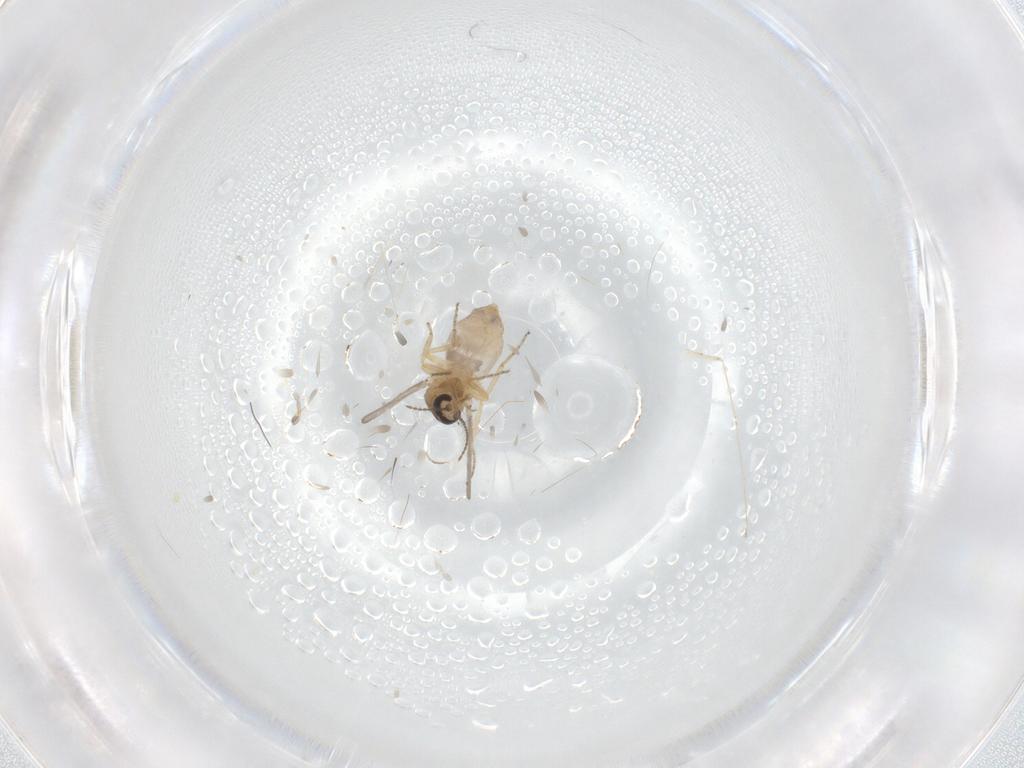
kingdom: Animalia
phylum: Arthropoda
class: Insecta
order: Diptera
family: Ceratopogonidae
